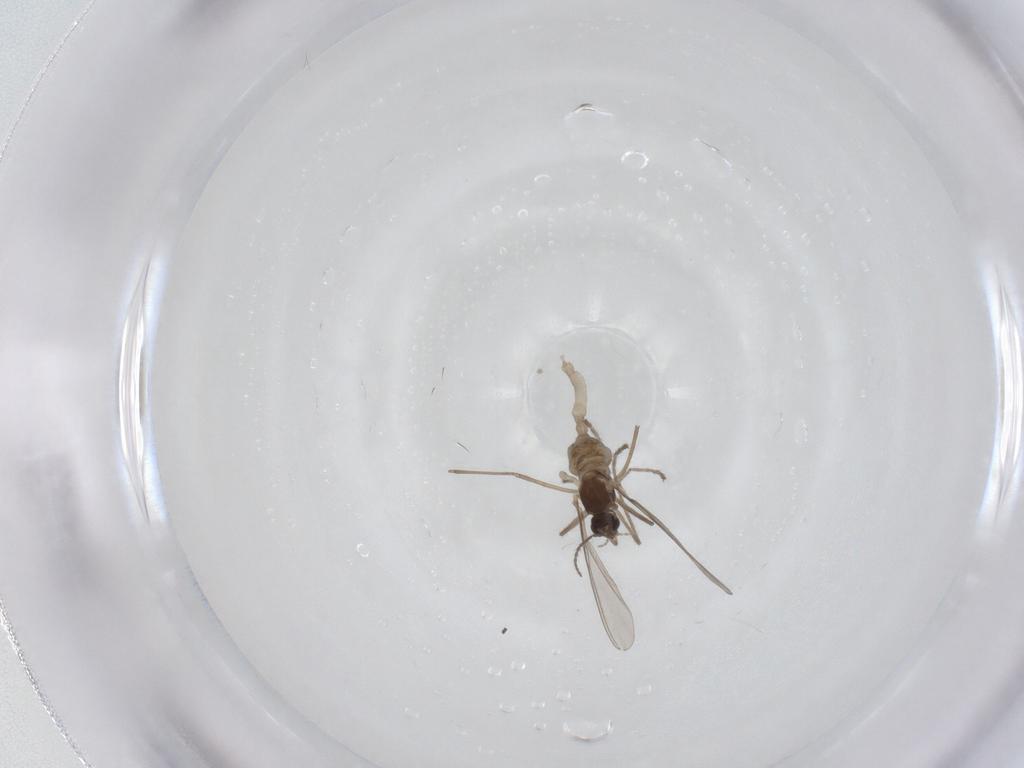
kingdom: Animalia
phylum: Arthropoda
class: Insecta
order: Diptera
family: Cecidomyiidae
